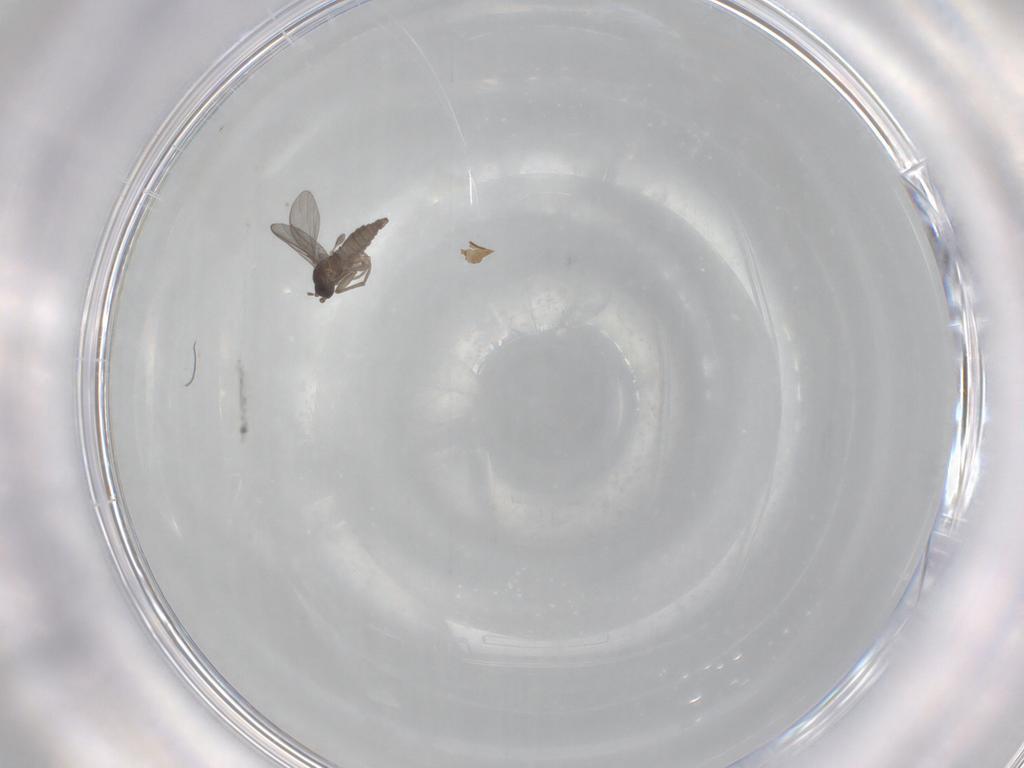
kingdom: Animalia
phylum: Arthropoda
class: Insecta
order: Diptera
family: Sciaridae
